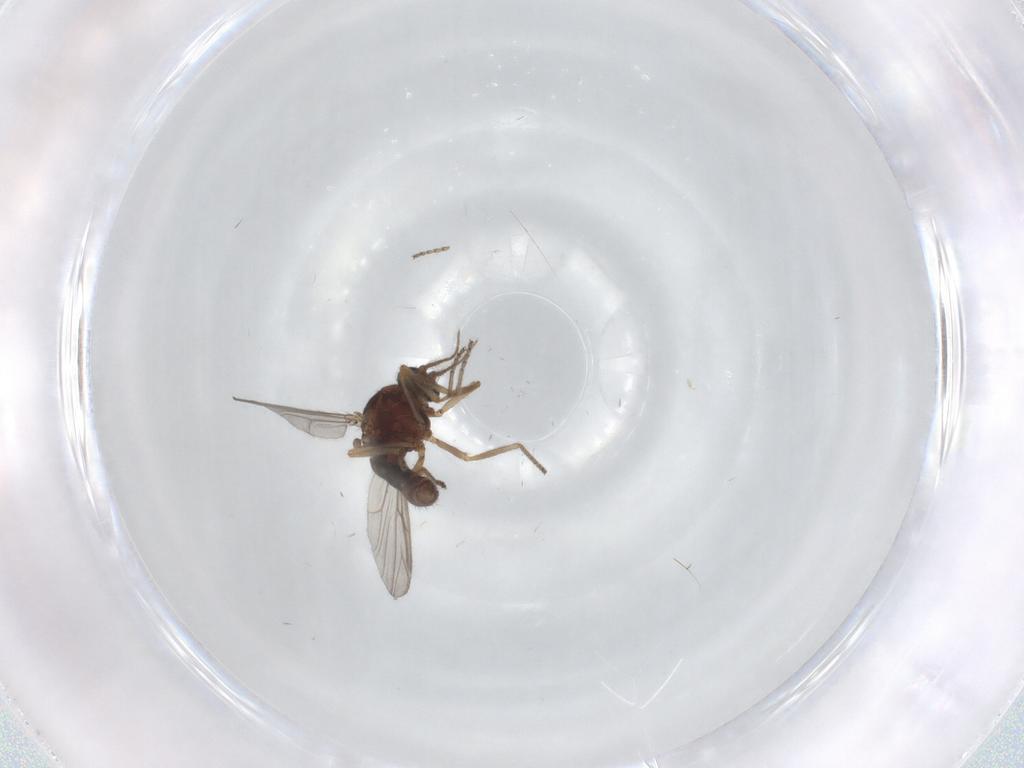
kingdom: Animalia
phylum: Arthropoda
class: Insecta
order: Diptera
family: Ceratopogonidae
